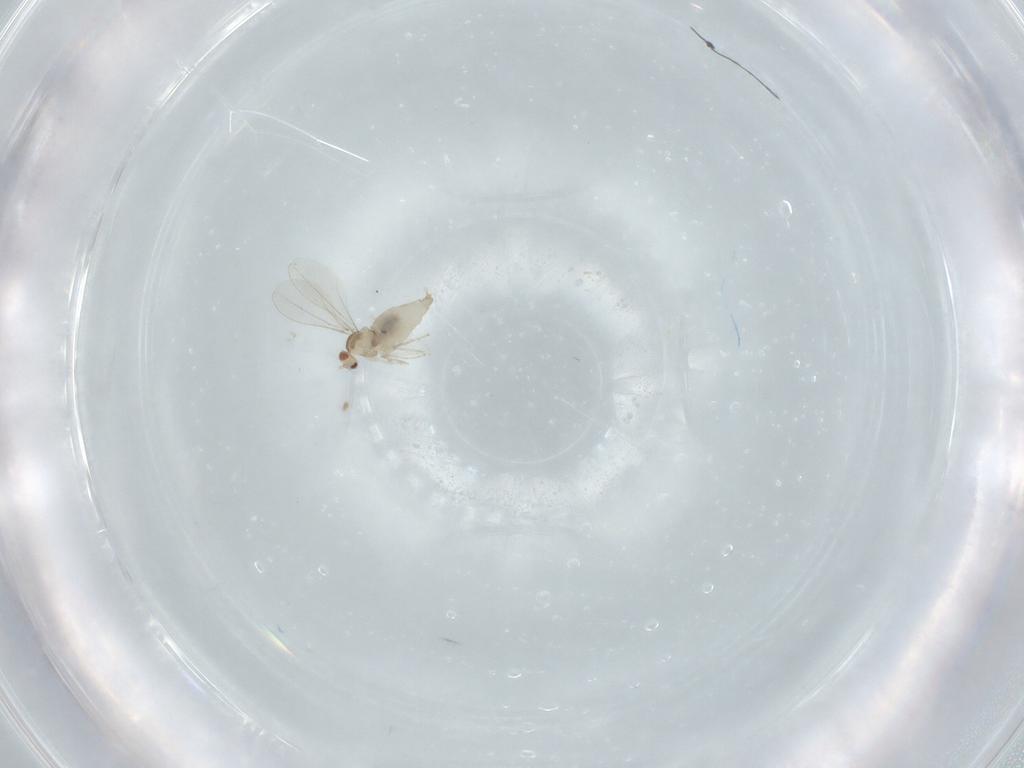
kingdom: Animalia
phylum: Arthropoda
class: Insecta
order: Diptera
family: Cecidomyiidae
